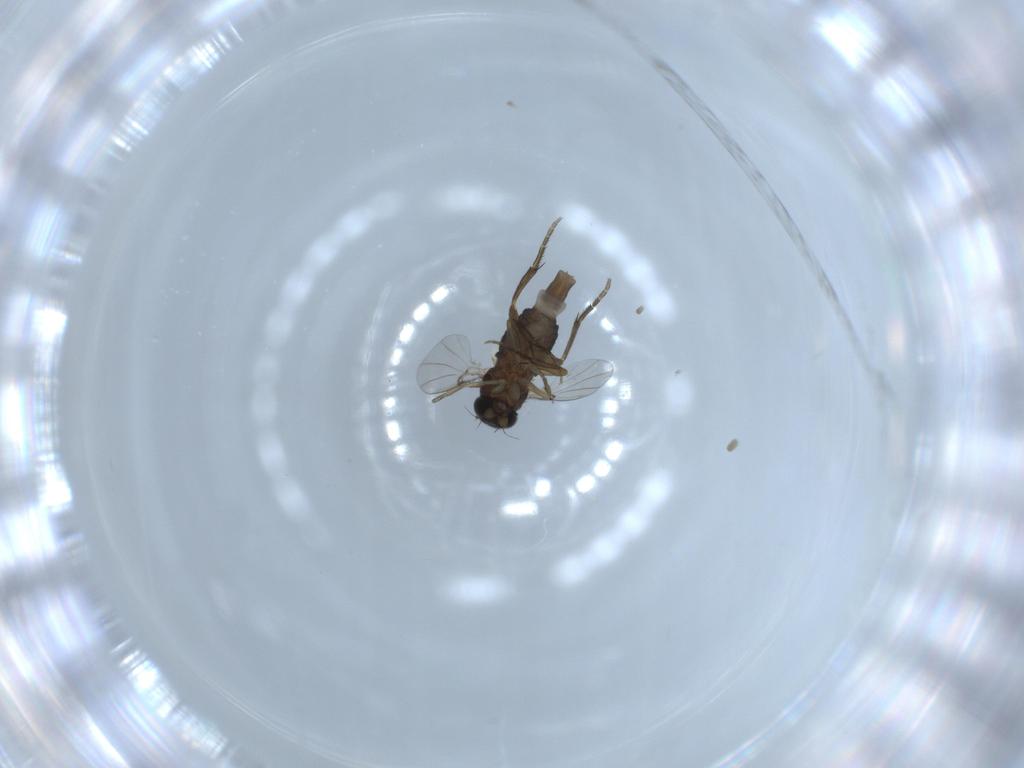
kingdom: Animalia
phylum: Arthropoda
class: Insecta
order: Diptera
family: Phoridae
